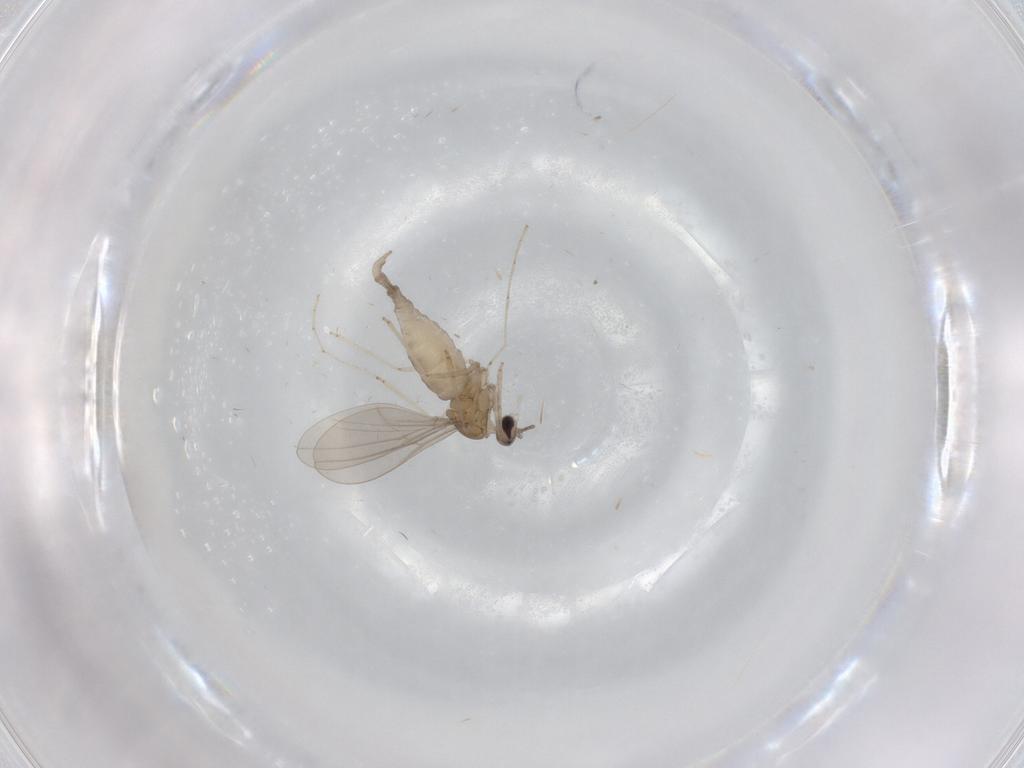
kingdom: Animalia
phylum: Arthropoda
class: Insecta
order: Diptera
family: Cecidomyiidae
